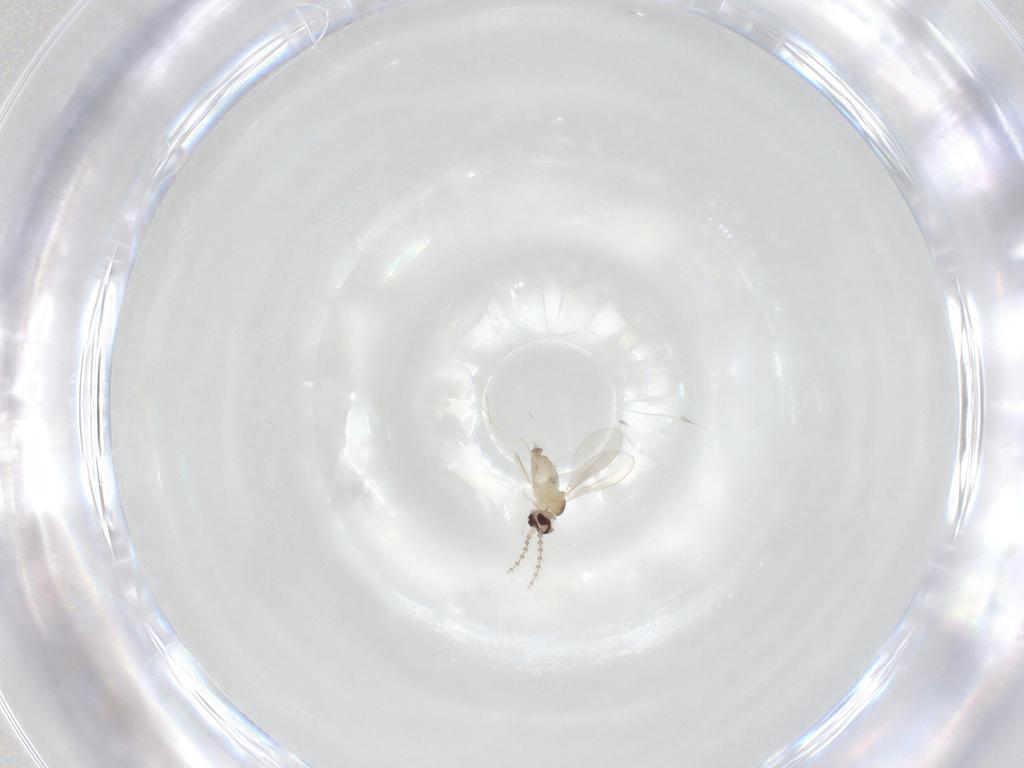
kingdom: Animalia
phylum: Arthropoda
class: Insecta
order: Diptera
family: Cecidomyiidae
